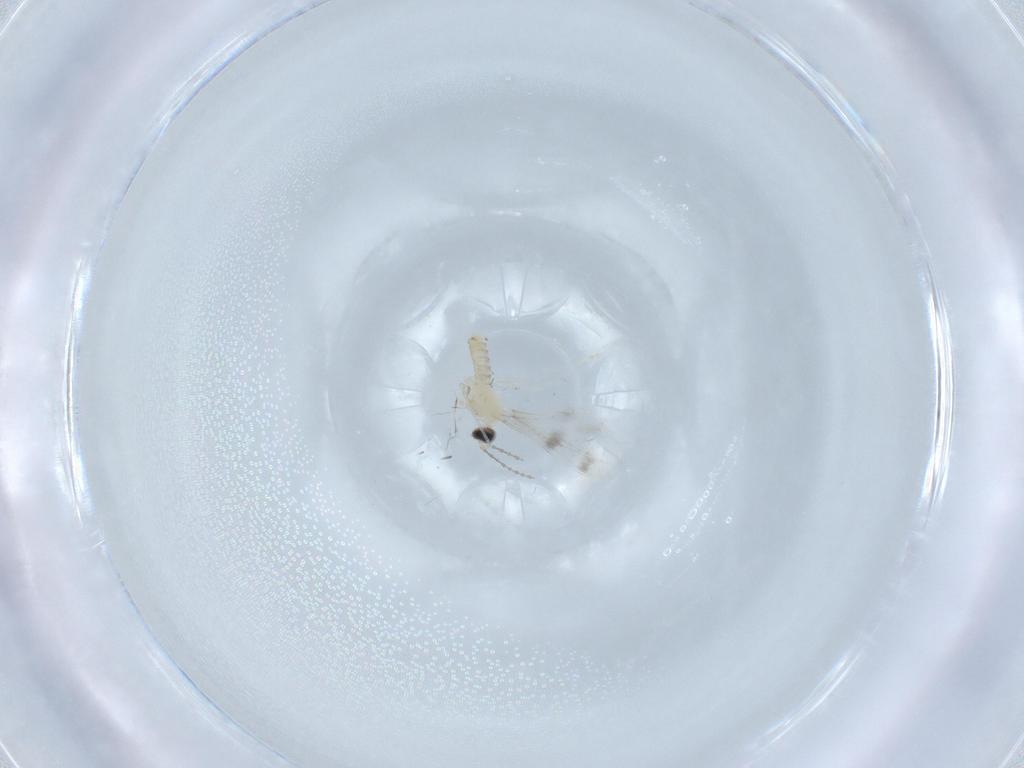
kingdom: Animalia
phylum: Arthropoda
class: Insecta
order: Diptera
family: Cecidomyiidae
